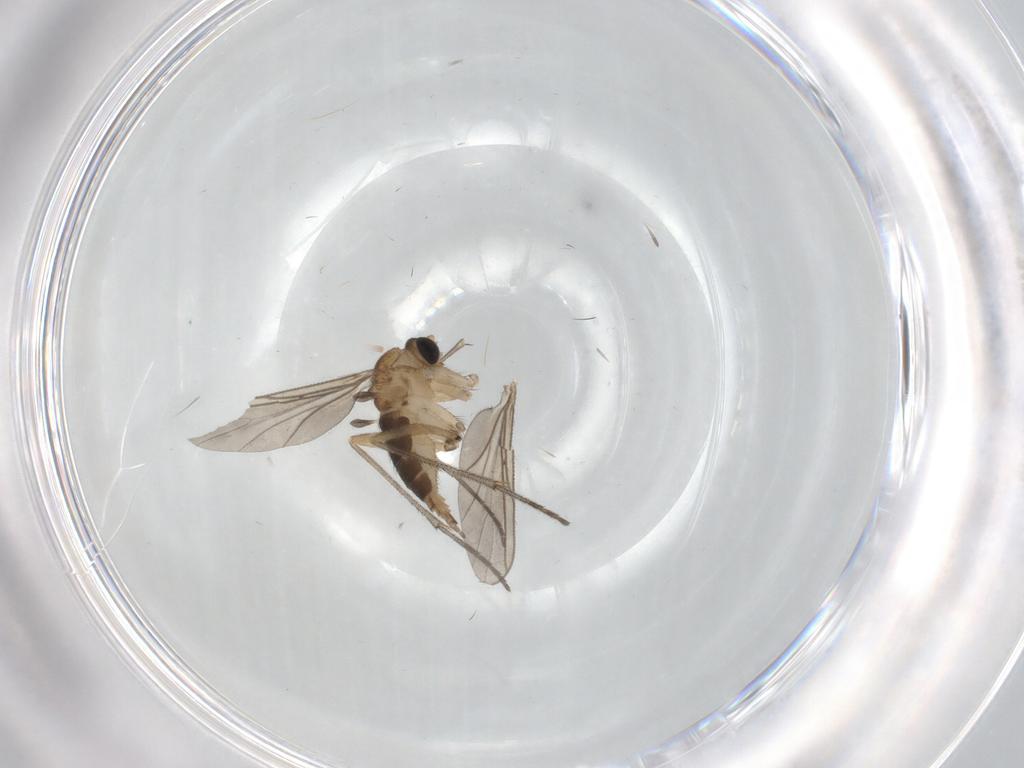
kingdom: Animalia
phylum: Arthropoda
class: Insecta
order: Diptera
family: Sciaridae
